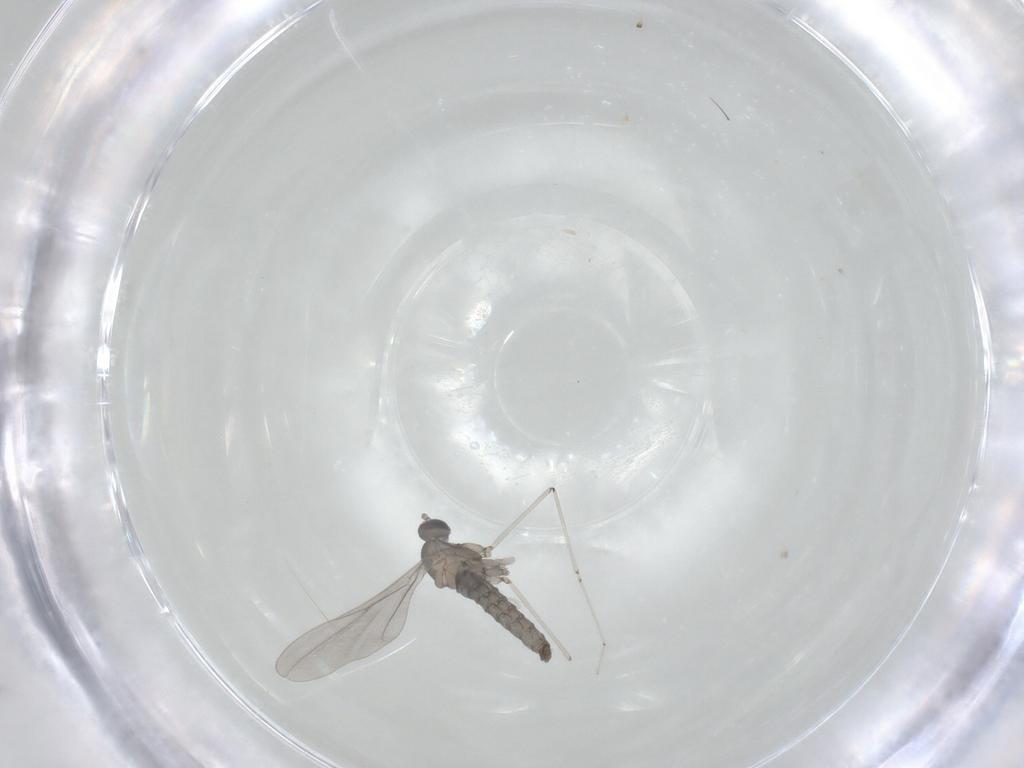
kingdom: Animalia
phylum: Arthropoda
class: Insecta
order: Diptera
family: Cecidomyiidae
